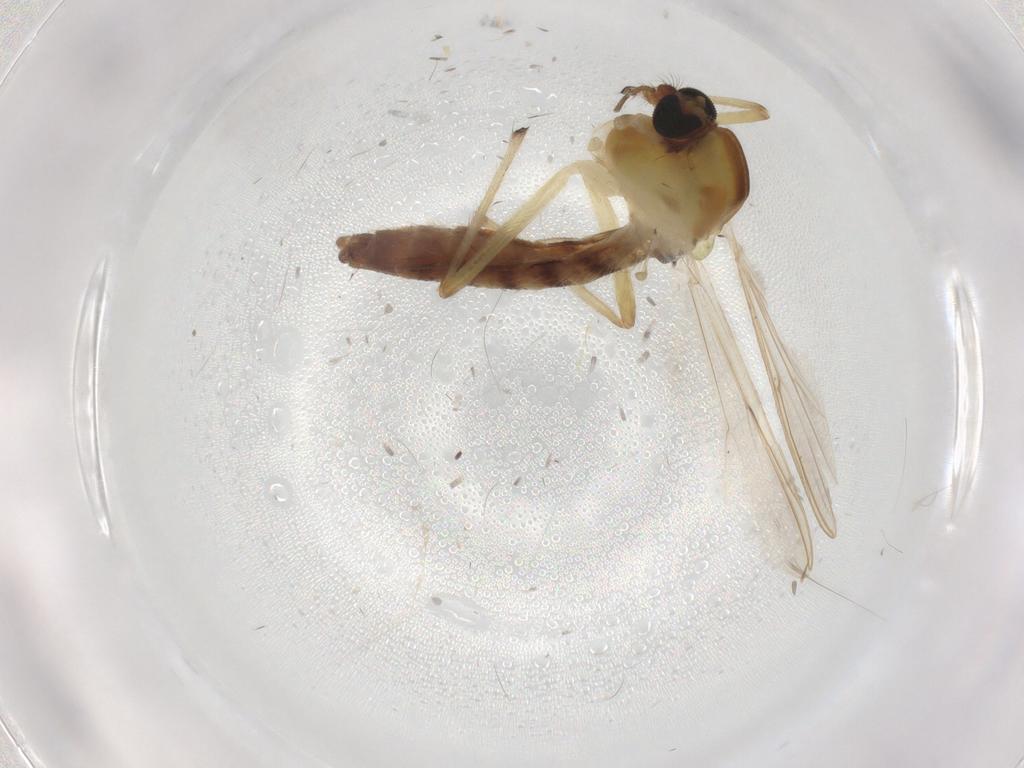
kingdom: Animalia
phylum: Arthropoda
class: Insecta
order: Diptera
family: Chironomidae
